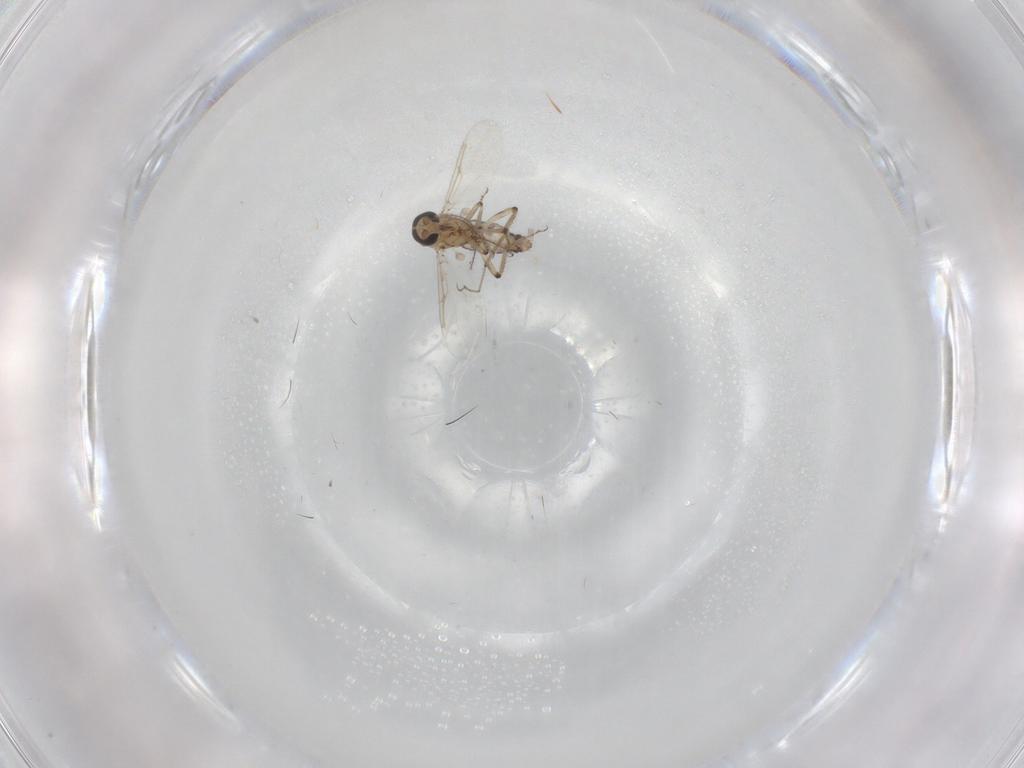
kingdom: Animalia
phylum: Arthropoda
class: Insecta
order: Diptera
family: Ceratopogonidae
